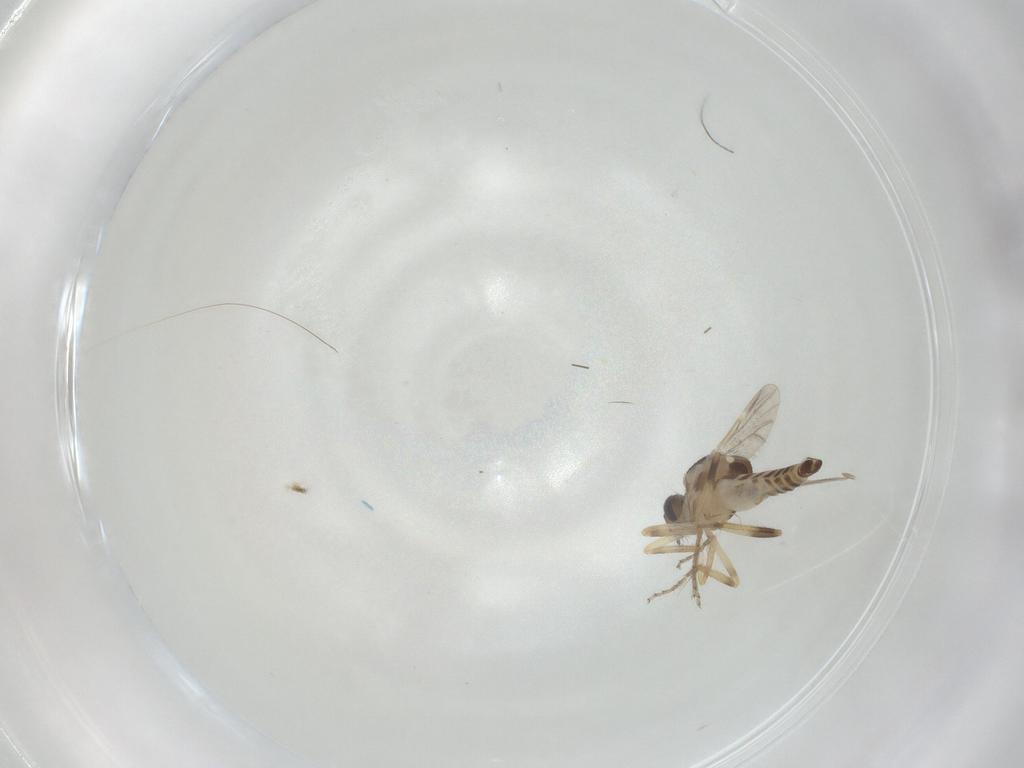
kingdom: Animalia
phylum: Arthropoda
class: Insecta
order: Diptera
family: Ceratopogonidae
